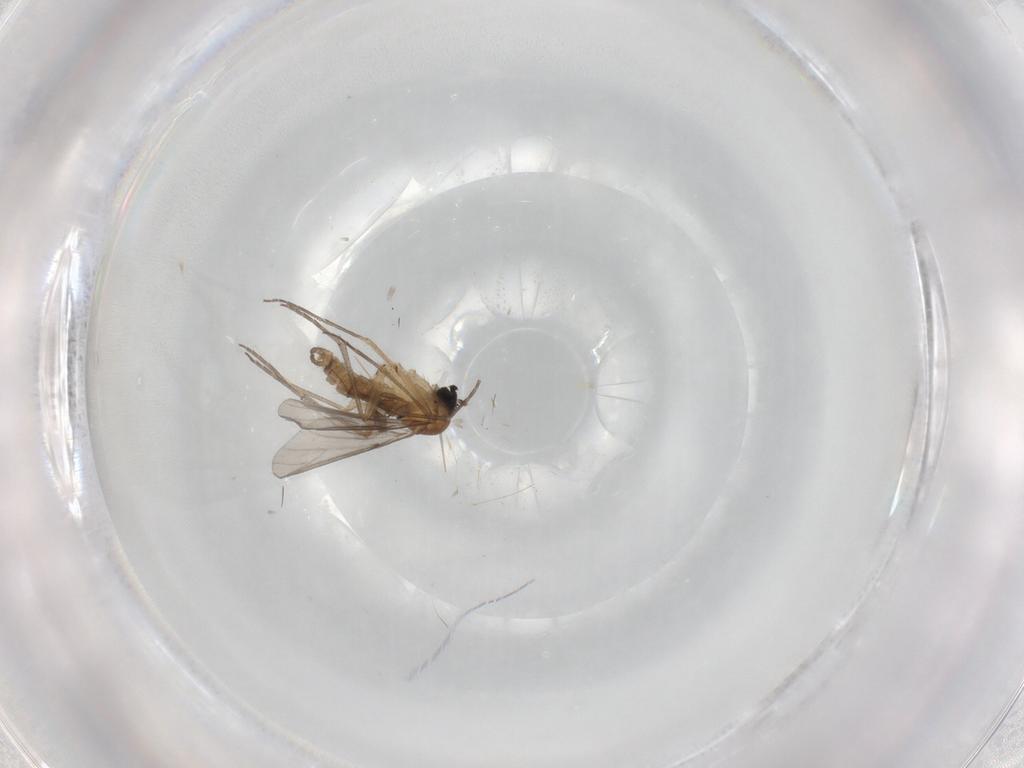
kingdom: Animalia
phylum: Arthropoda
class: Insecta
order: Diptera
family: Sciaridae
